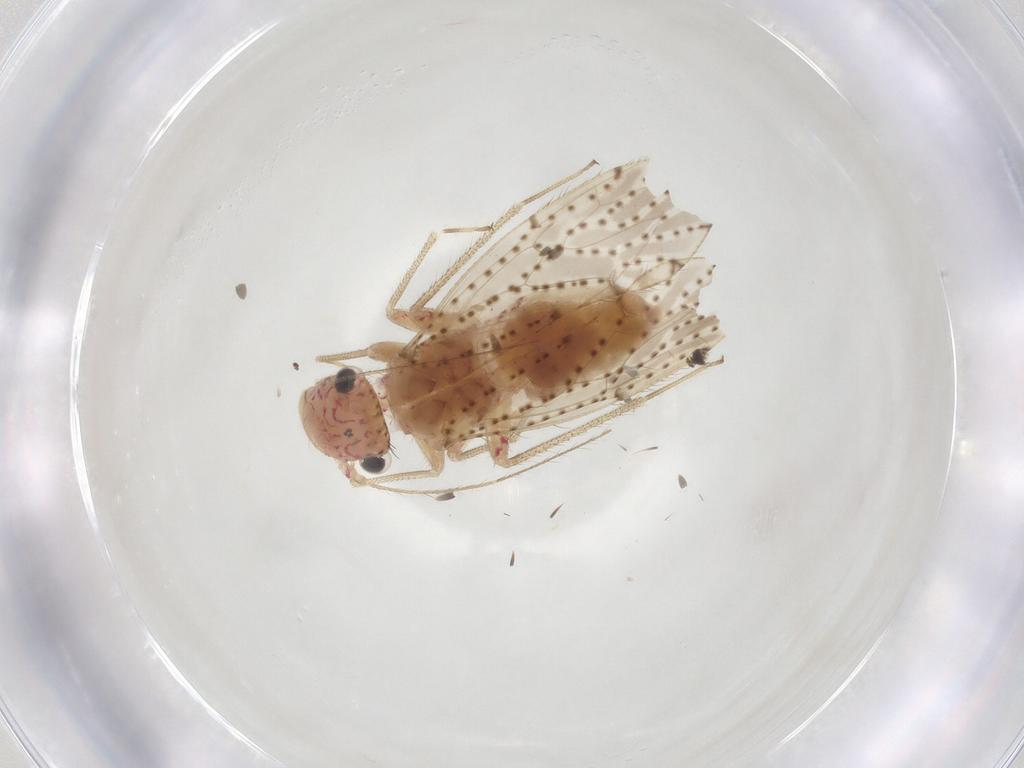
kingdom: Animalia
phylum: Arthropoda
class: Insecta
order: Psocodea
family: Philotarsidae
